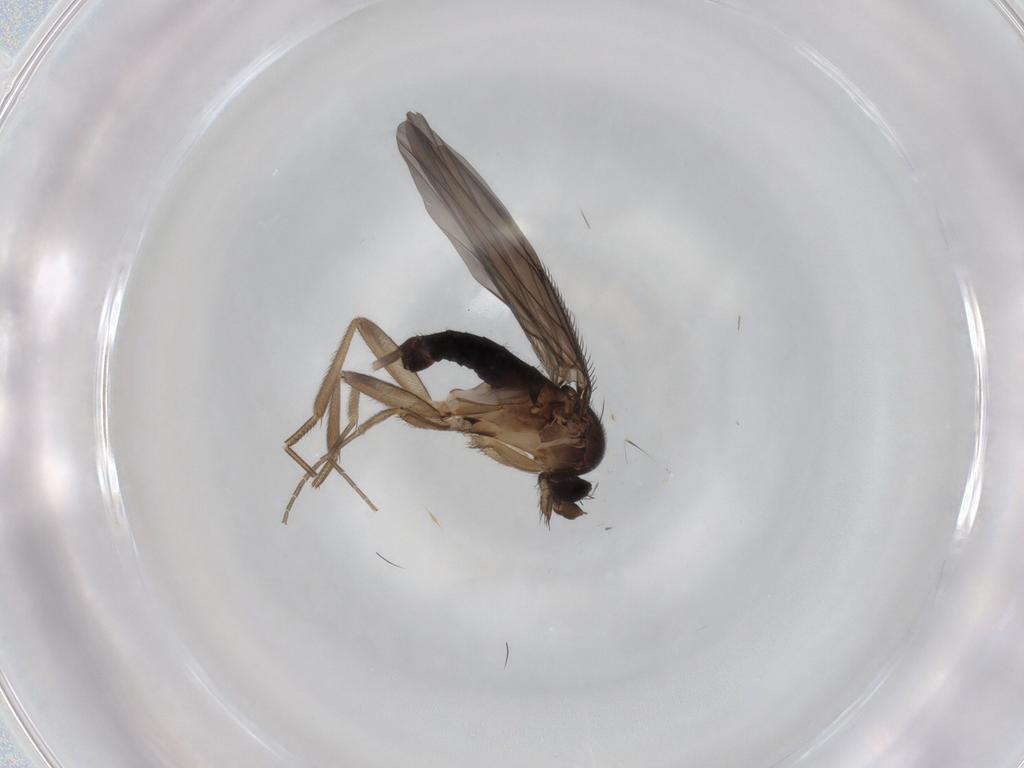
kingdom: Animalia
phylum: Arthropoda
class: Insecta
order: Diptera
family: Phoridae
